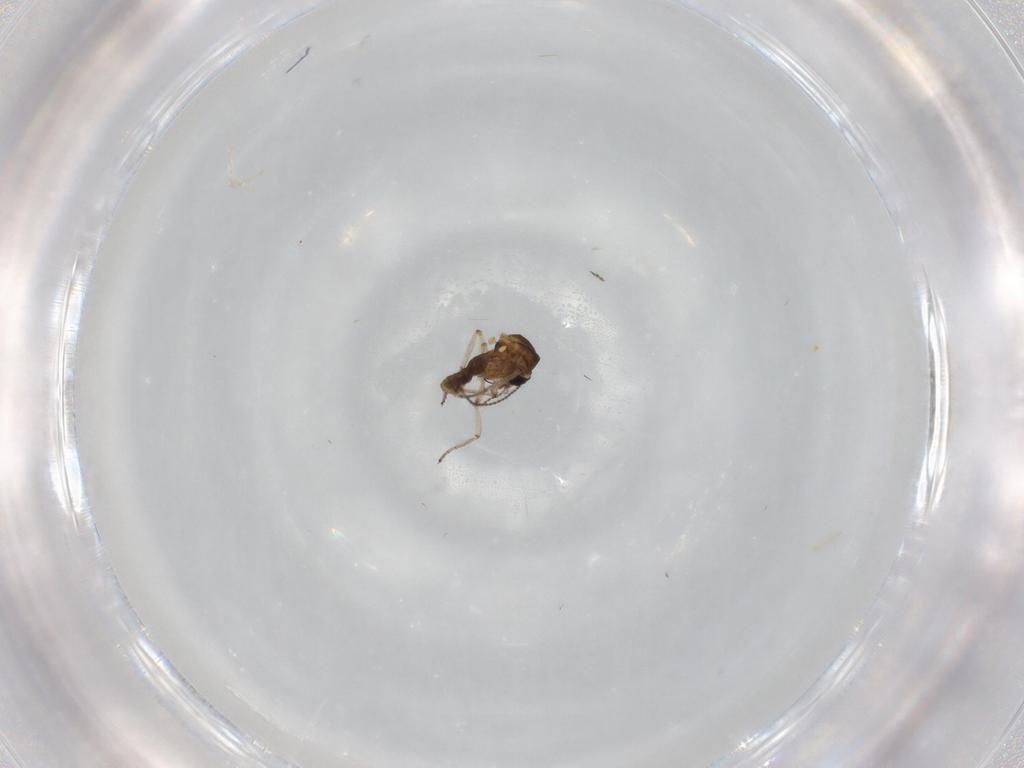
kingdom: Animalia
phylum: Arthropoda
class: Insecta
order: Diptera
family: Ceratopogonidae
